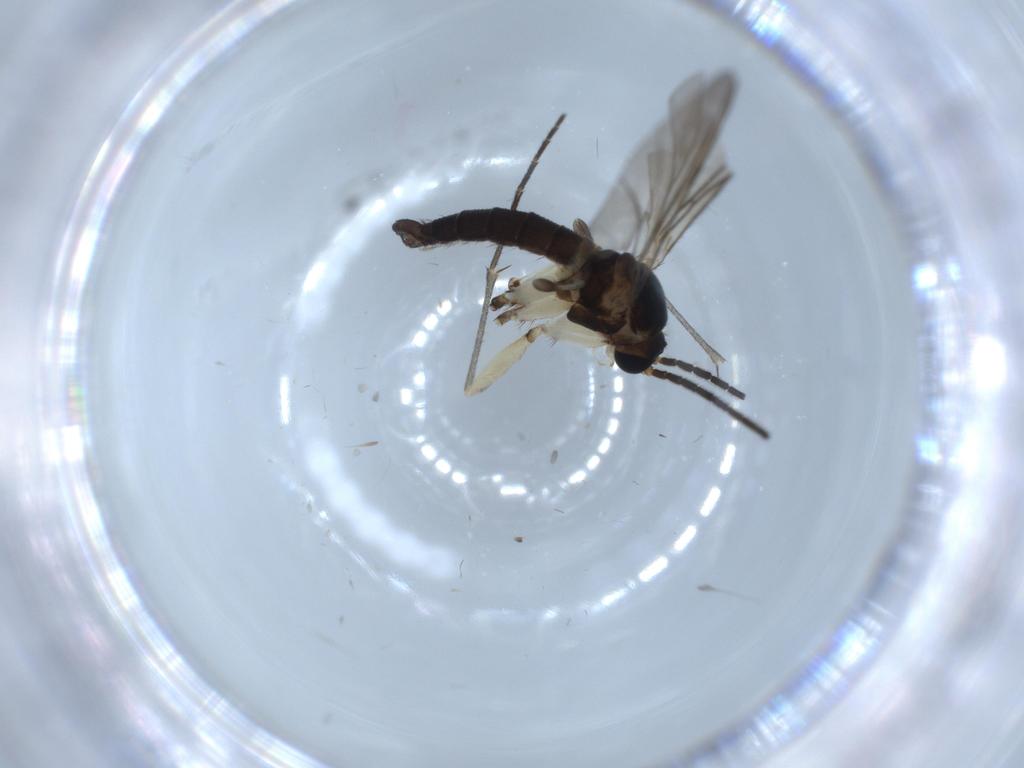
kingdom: Animalia
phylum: Arthropoda
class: Insecta
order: Diptera
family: Sciaridae
